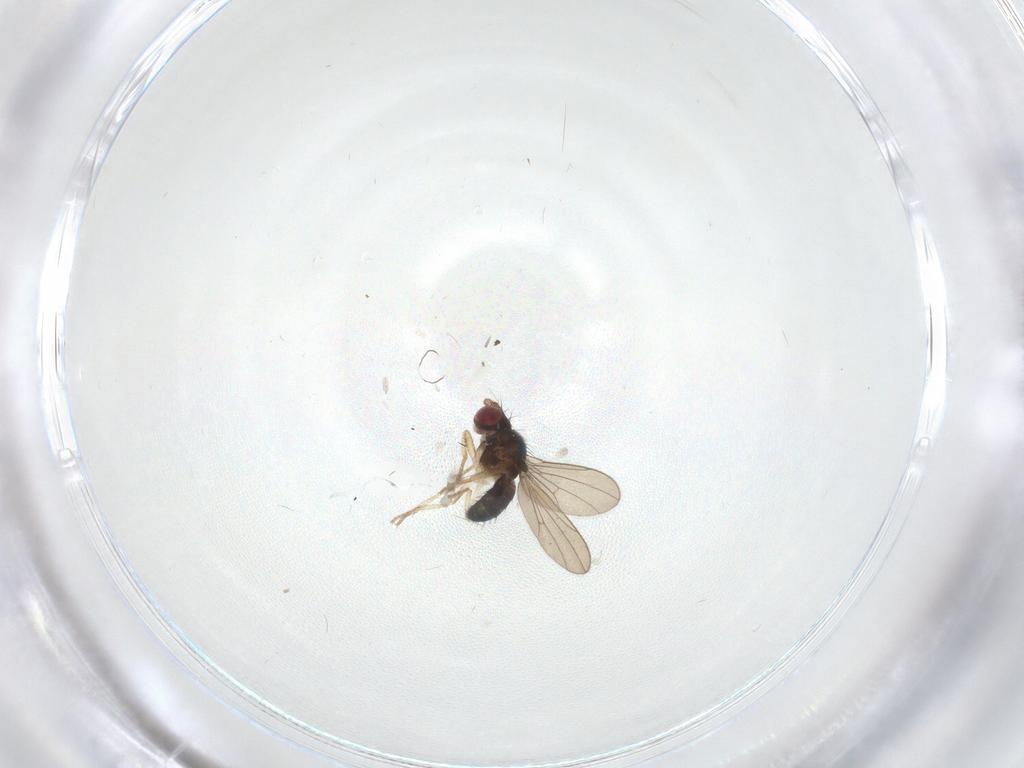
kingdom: Animalia
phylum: Arthropoda
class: Insecta
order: Diptera
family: Drosophilidae
